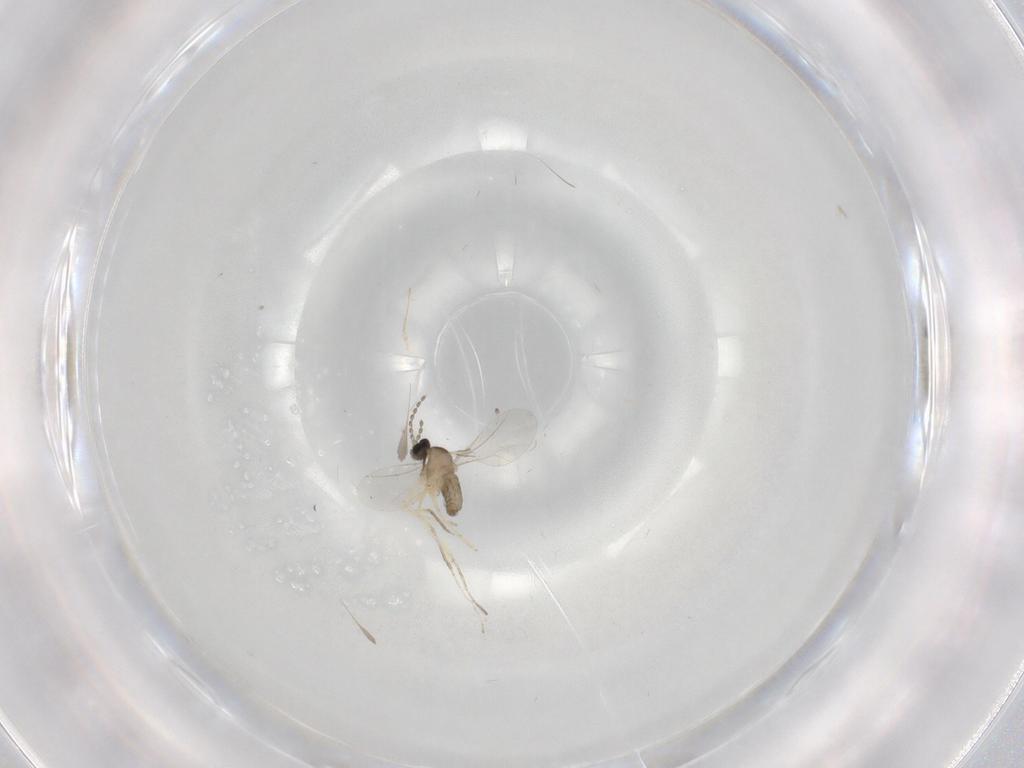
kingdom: Animalia
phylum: Arthropoda
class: Insecta
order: Diptera
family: Cecidomyiidae
